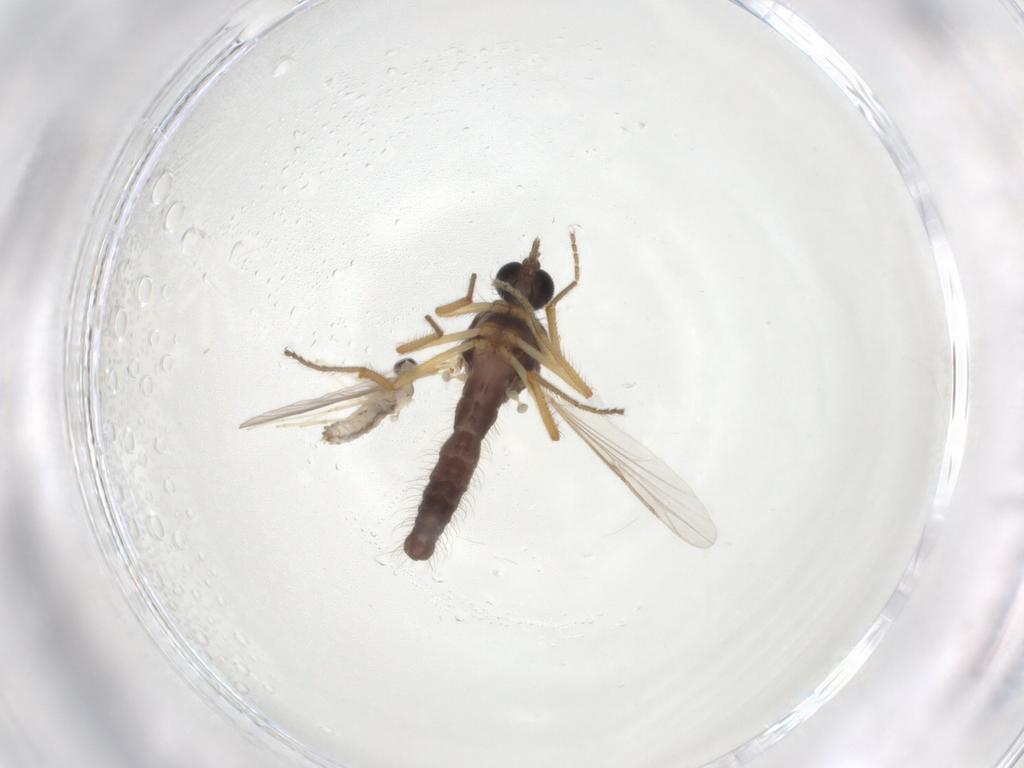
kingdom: Animalia
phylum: Arthropoda
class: Insecta
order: Diptera
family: Ceratopogonidae
